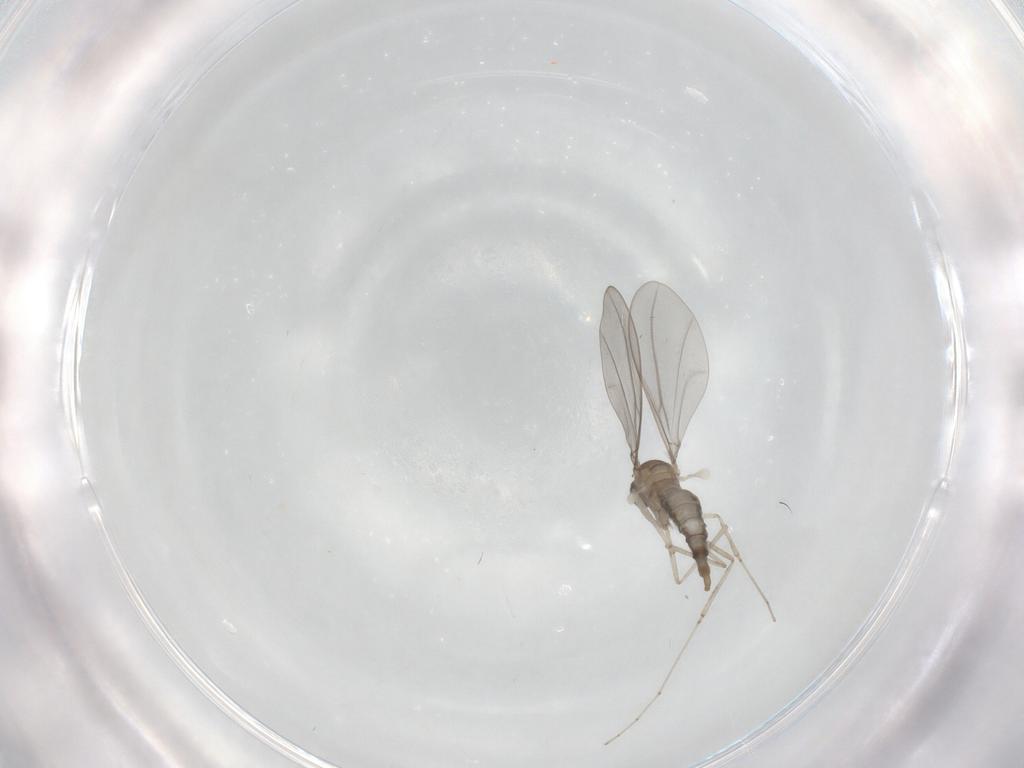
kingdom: Animalia
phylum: Arthropoda
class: Insecta
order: Diptera
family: Cecidomyiidae
